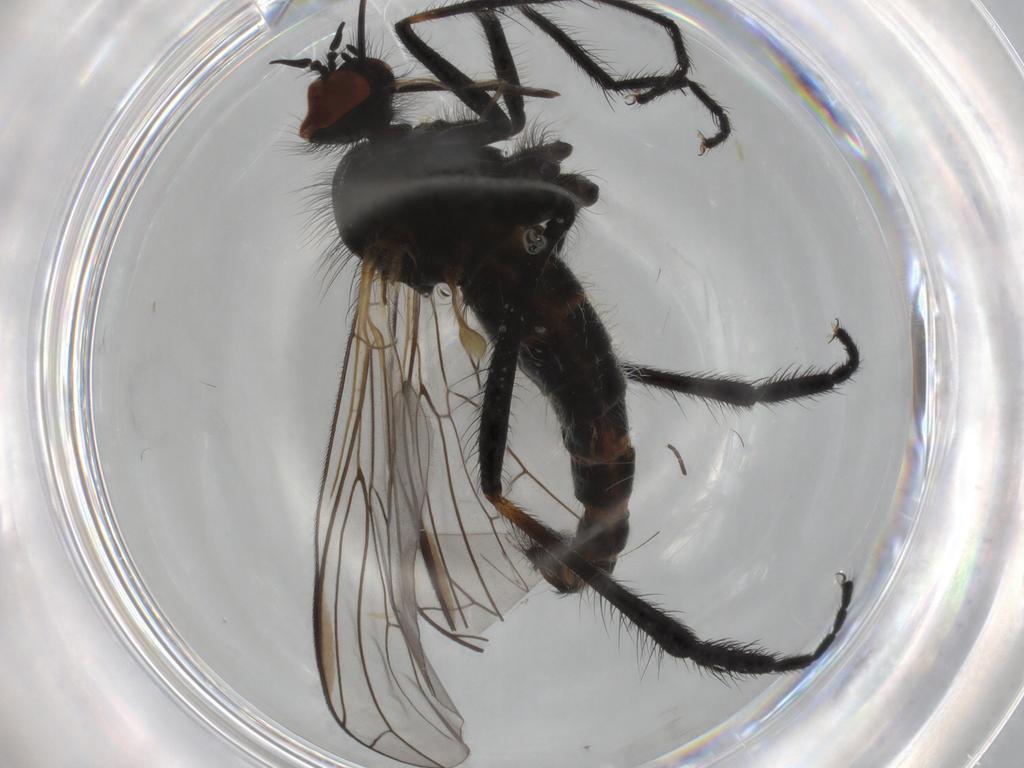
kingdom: Animalia
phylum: Arthropoda
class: Insecta
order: Diptera
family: Empididae
